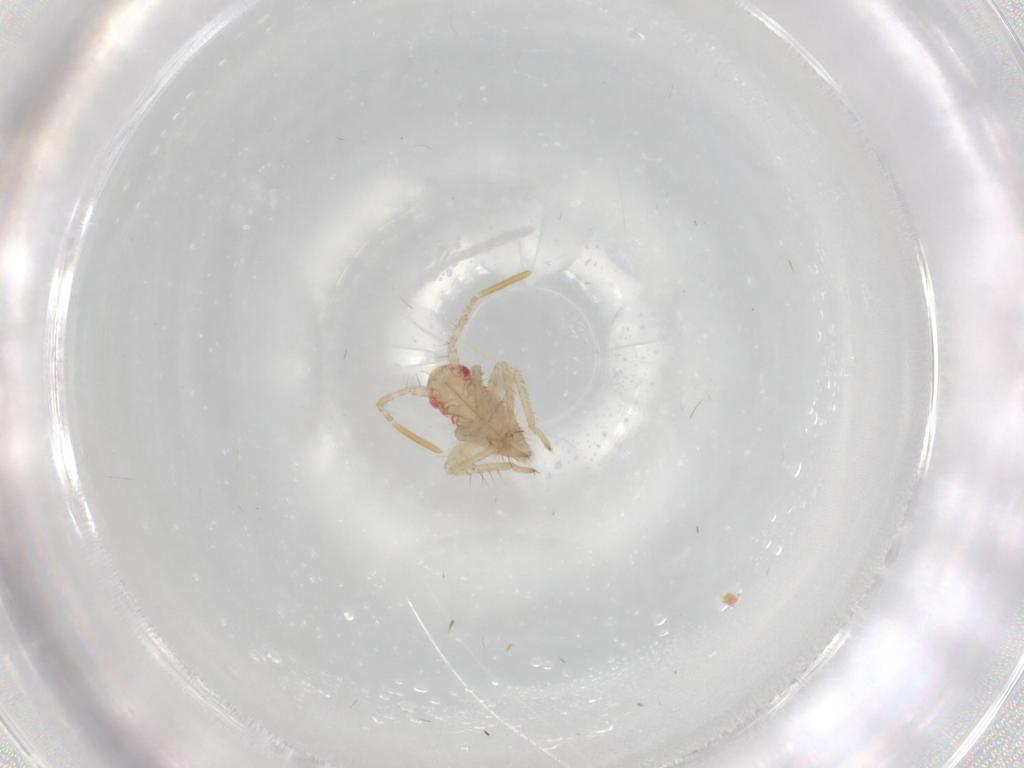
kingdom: Animalia
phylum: Arthropoda
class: Insecta
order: Hemiptera
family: Miridae
